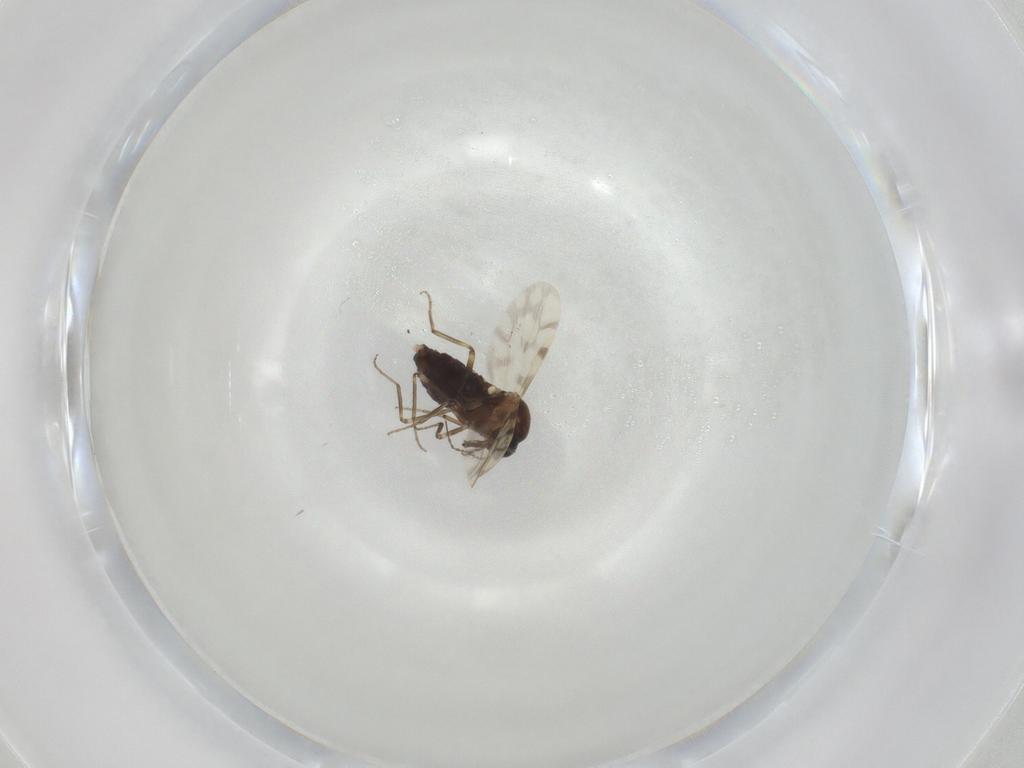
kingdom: Animalia
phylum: Arthropoda
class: Insecta
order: Diptera
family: Ceratopogonidae
